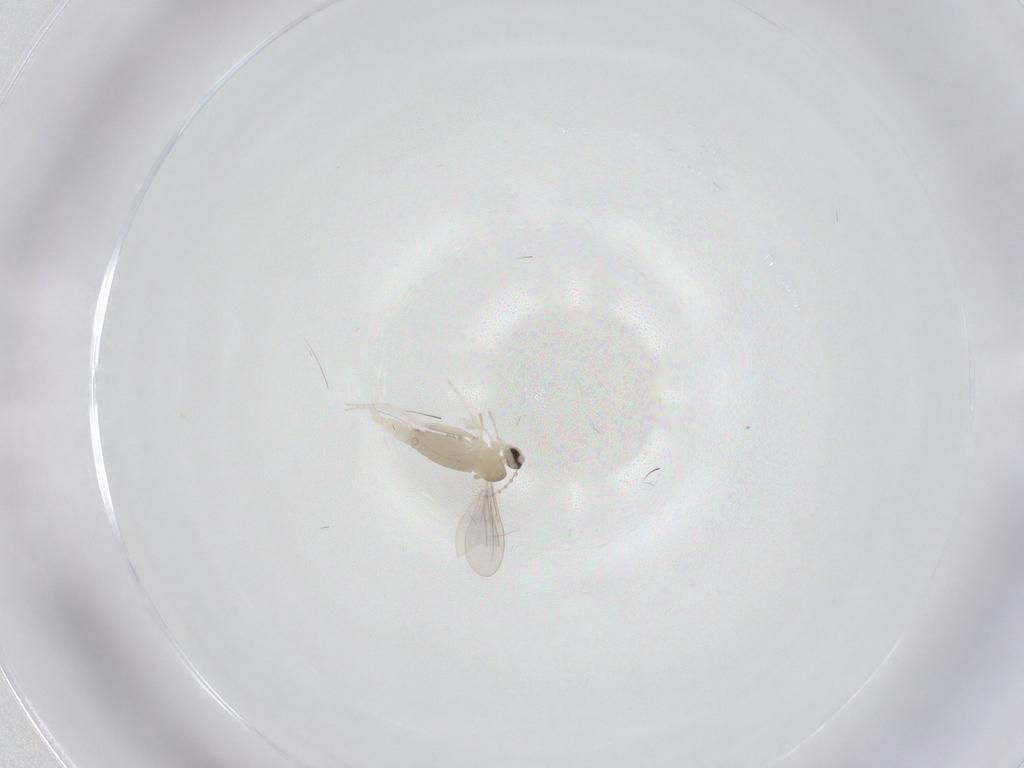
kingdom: Animalia
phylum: Arthropoda
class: Insecta
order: Diptera
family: Cecidomyiidae
